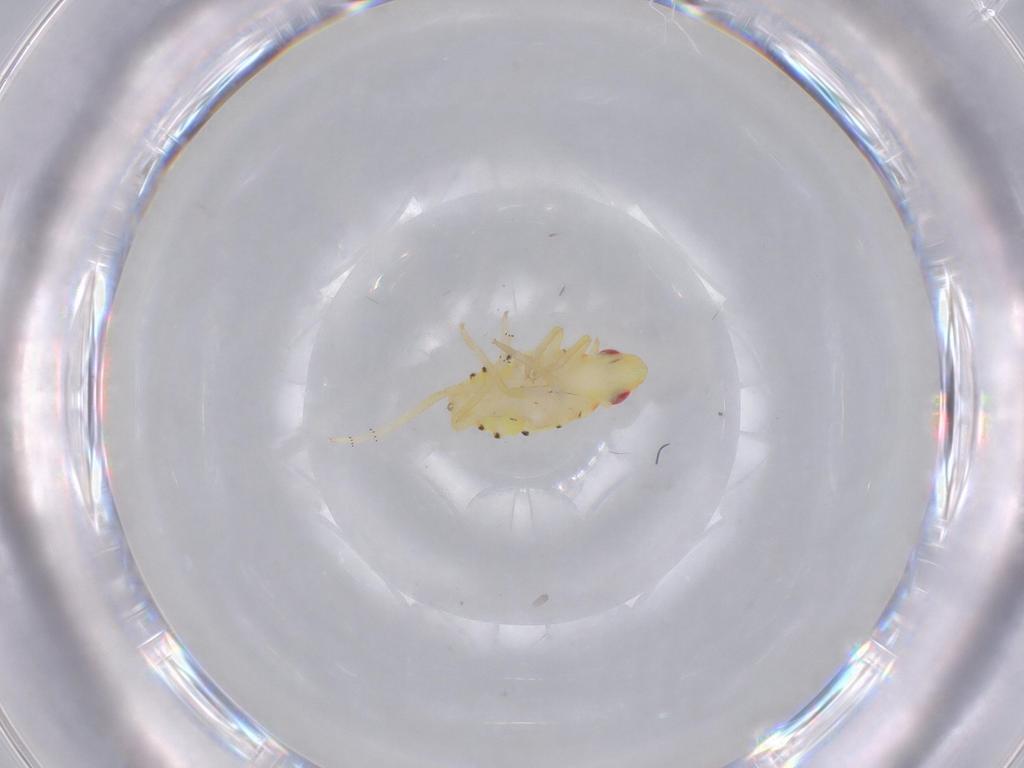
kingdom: Animalia
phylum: Arthropoda
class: Insecta
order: Hemiptera
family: Tropiduchidae
